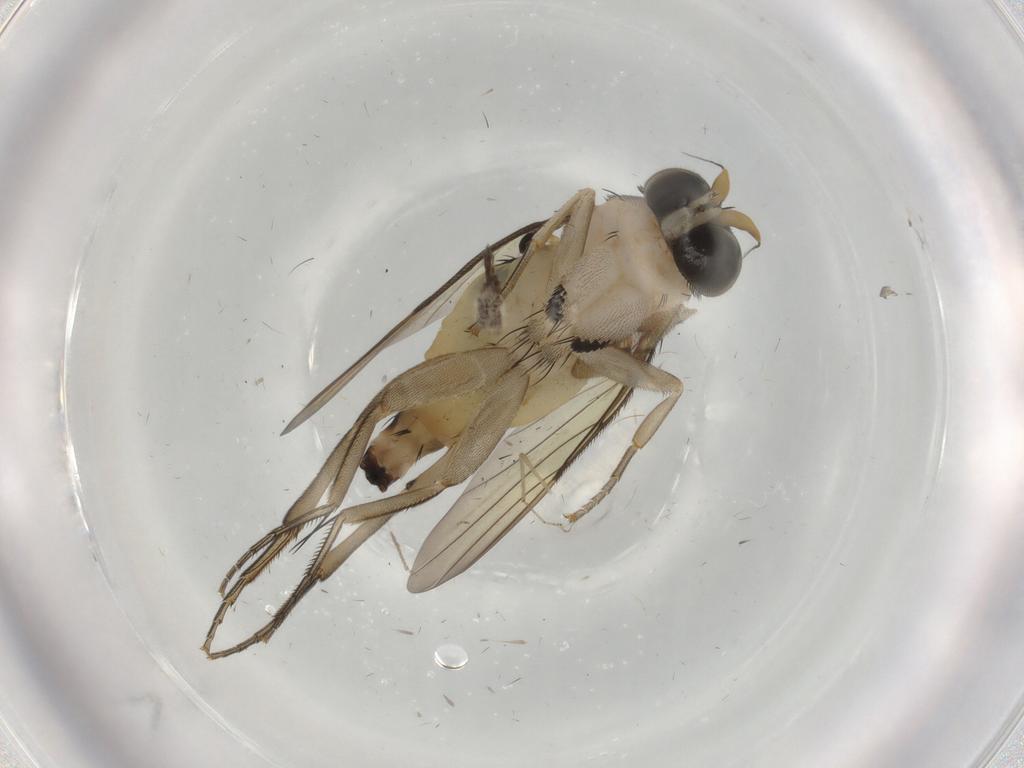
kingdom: Animalia
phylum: Arthropoda
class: Insecta
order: Diptera
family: Phoridae
